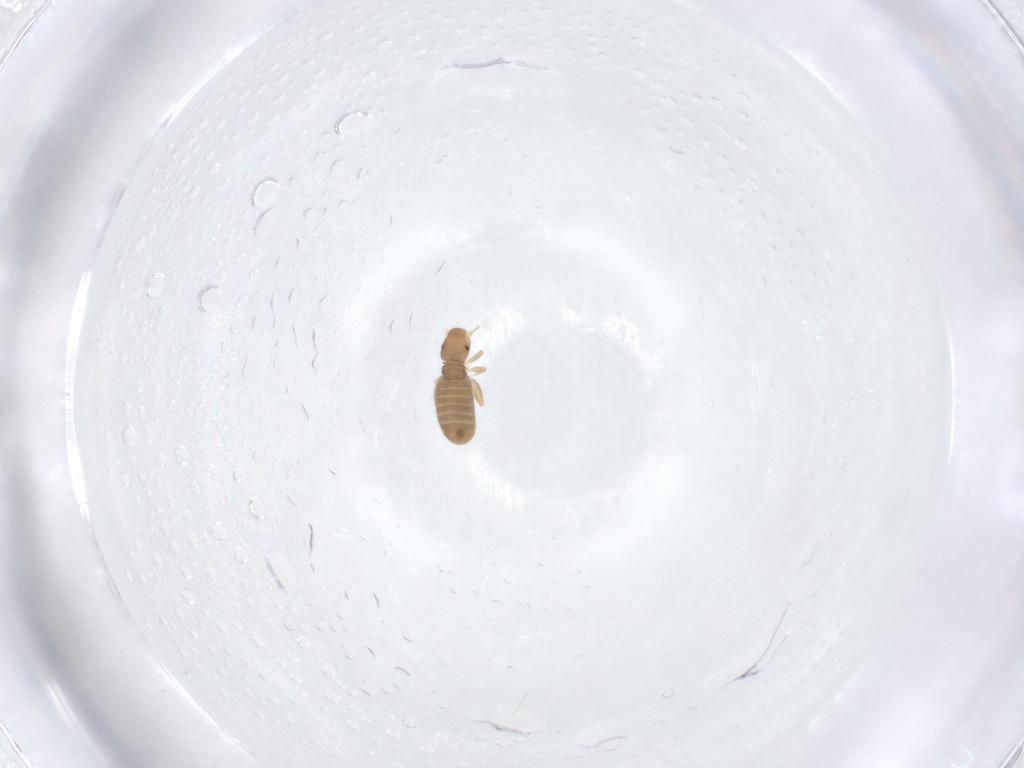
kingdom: Animalia
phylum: Arthropoda
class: Insecta
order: Psocodea
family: Liposcelididae
